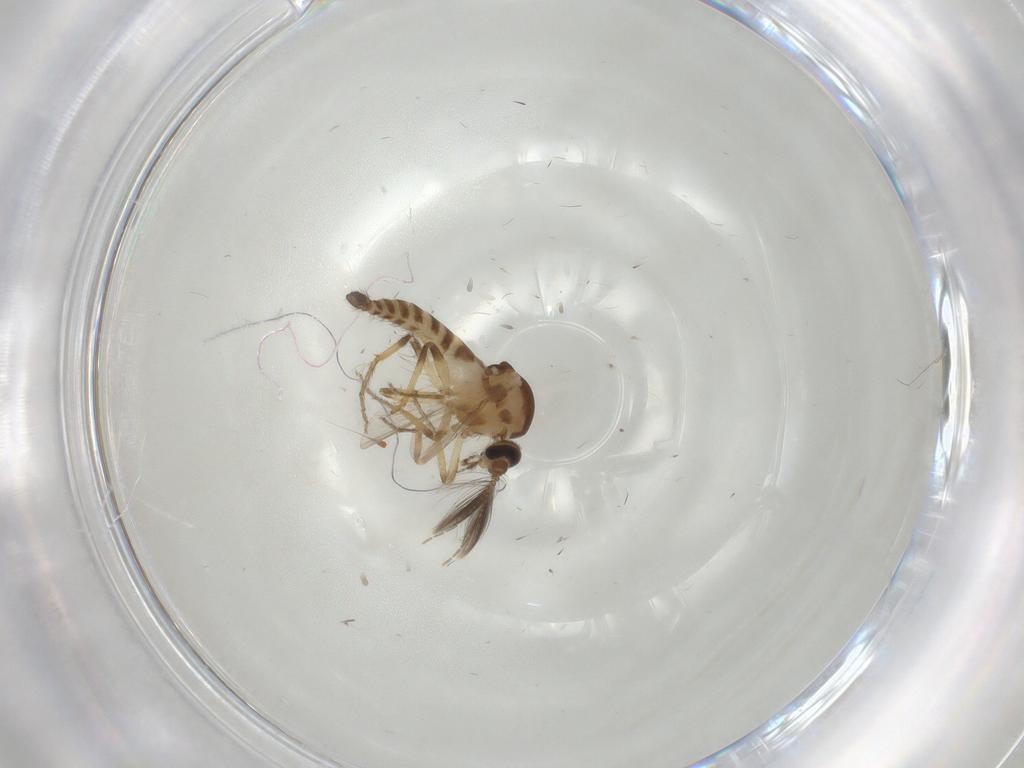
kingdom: Animalia
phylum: Arthropoda
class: Insecta
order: Diptera
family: Ceratopogonidae
